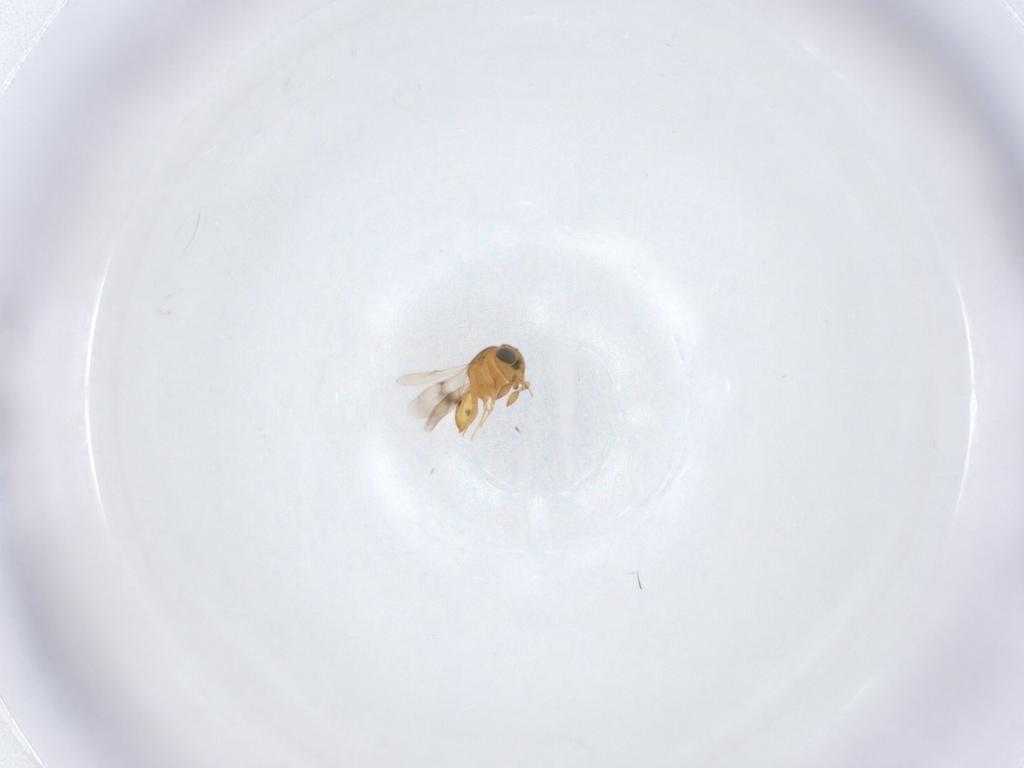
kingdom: Animalia
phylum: Arthropoda
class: Insecta
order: Hymenoptera
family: Scelionidae
